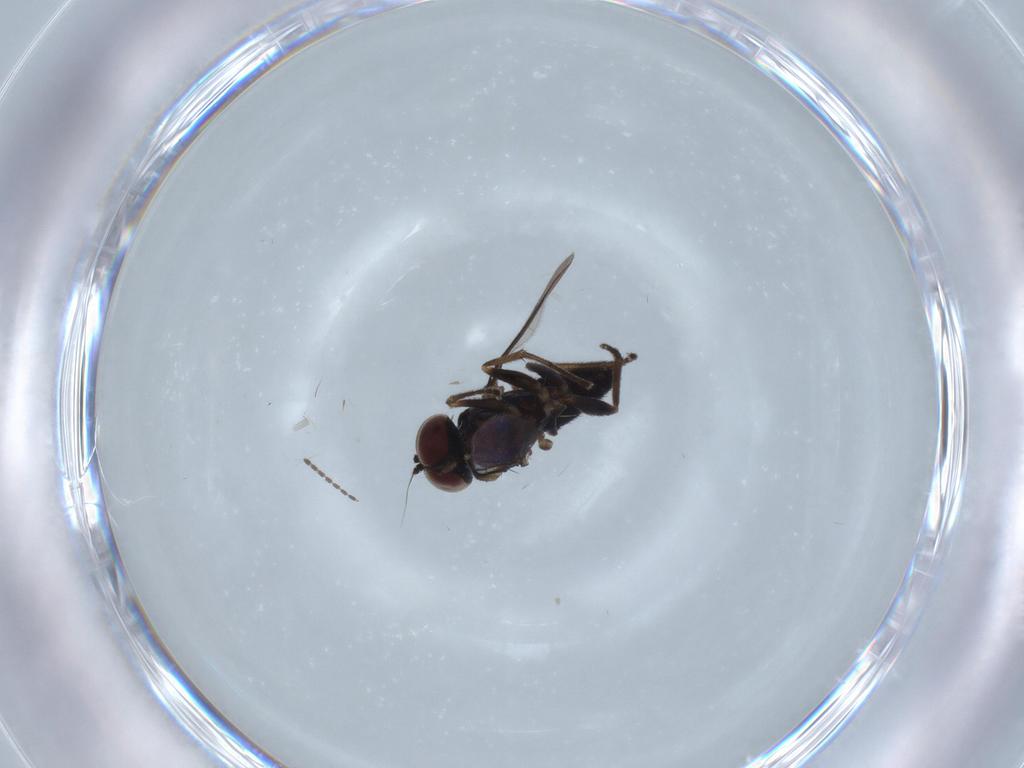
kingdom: Animalia
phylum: Arthropoda
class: Insecta
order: Diptera
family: Dolichopodidae
